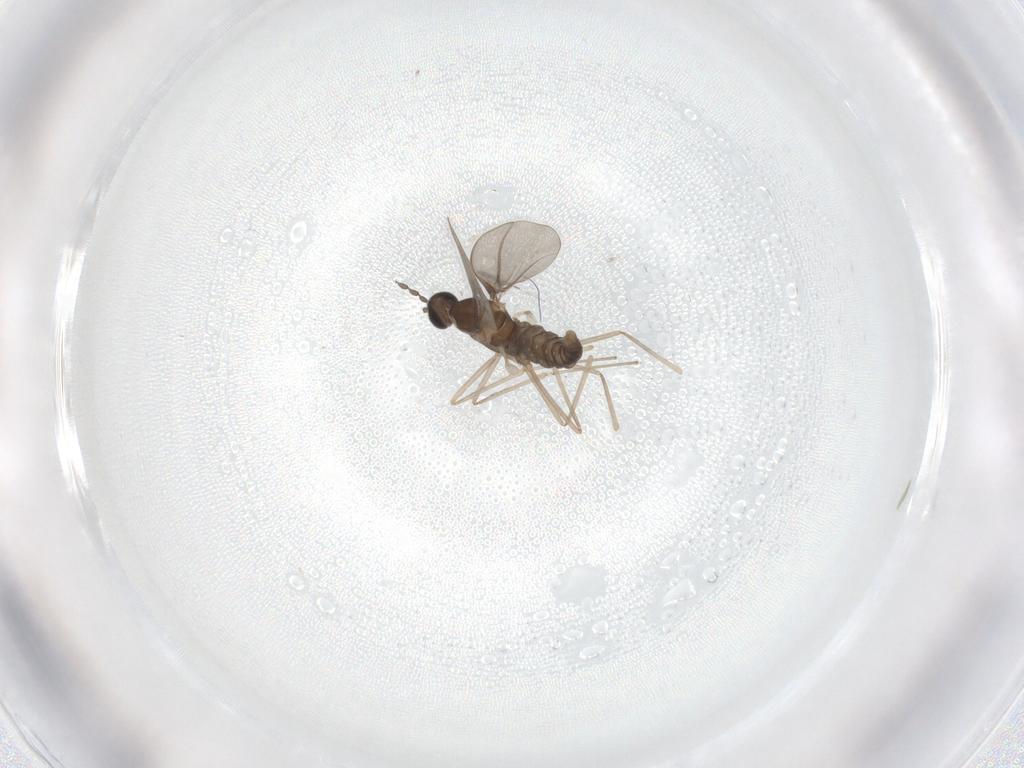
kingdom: Animalia
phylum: Arthropoda
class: Insecta
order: Diptera
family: Cecidomyiidae
